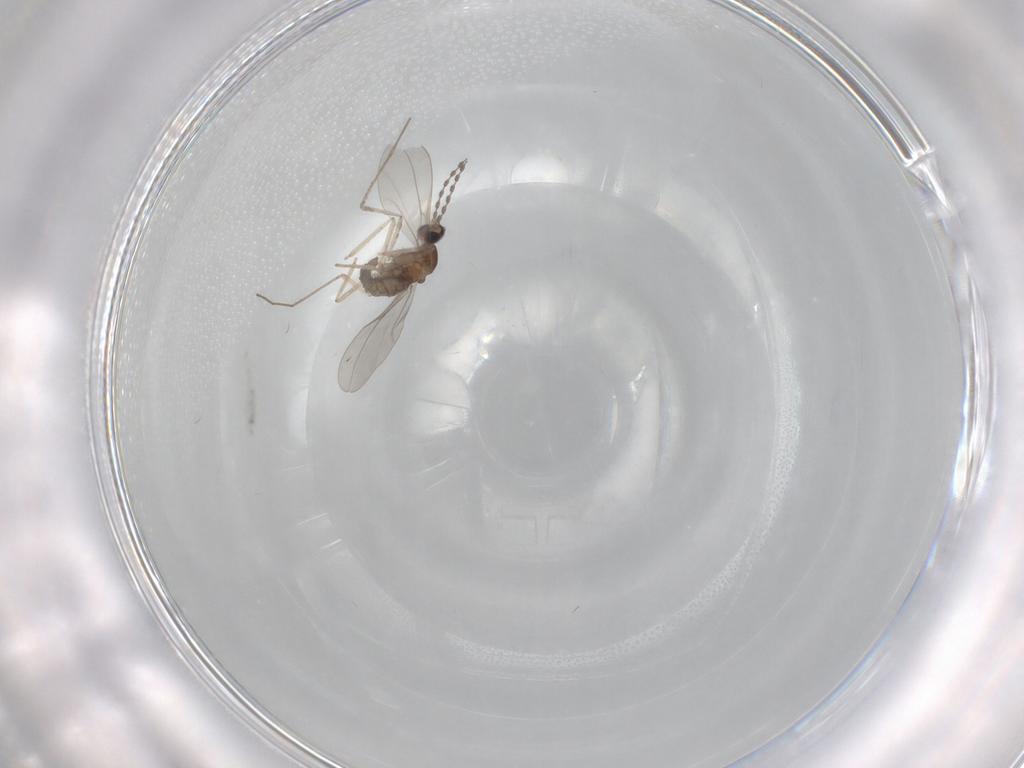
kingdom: Animalia
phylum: Arthropoda
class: Insecta
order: Diptera
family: Cecidomyiidae
